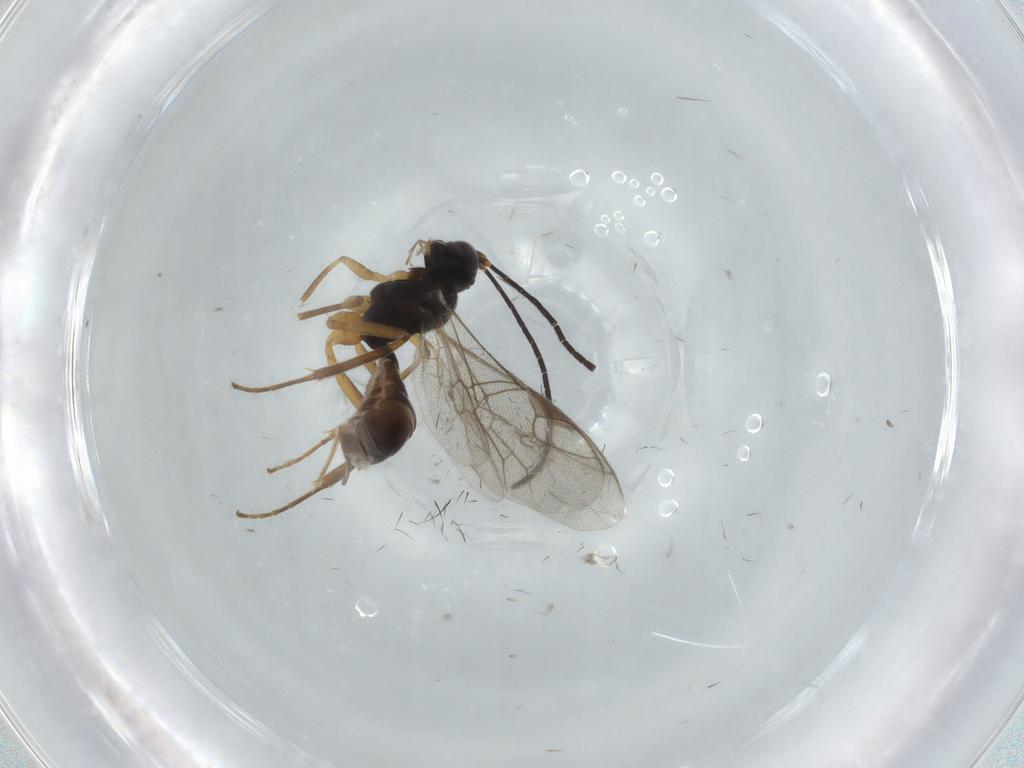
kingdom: Animalia
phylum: Arthropoda
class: Insecta
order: Hymenoptera
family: Ichneumonidae
